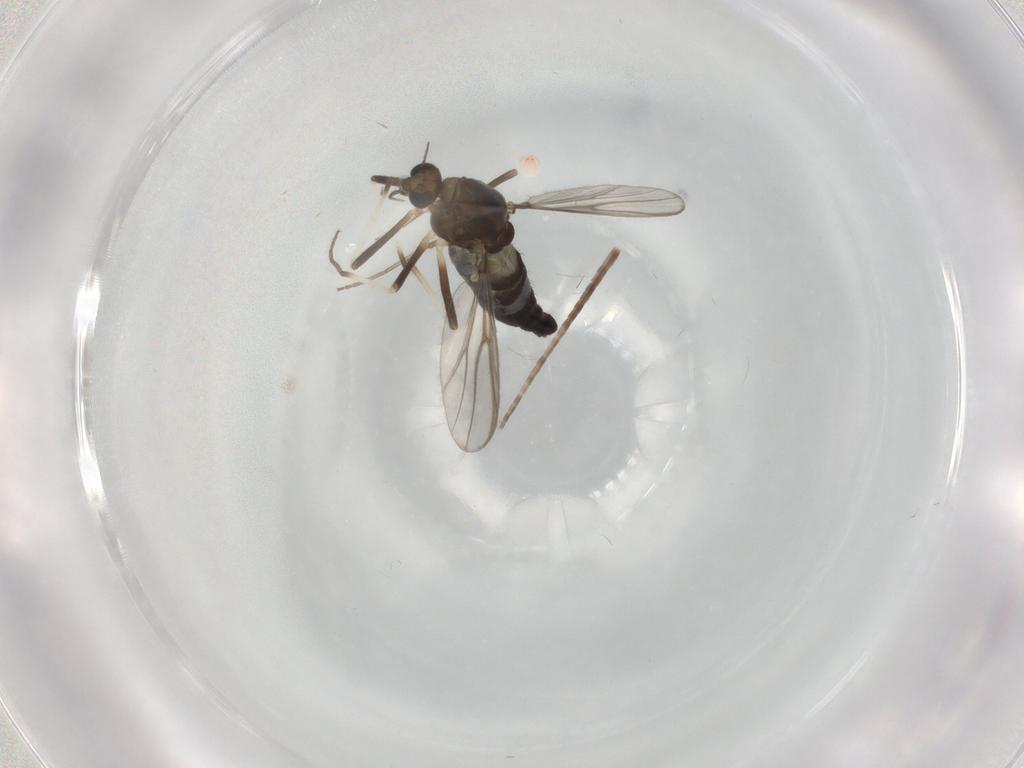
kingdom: Animalia
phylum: Arthropoda
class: Insecta
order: Diptera
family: Chironomidae
